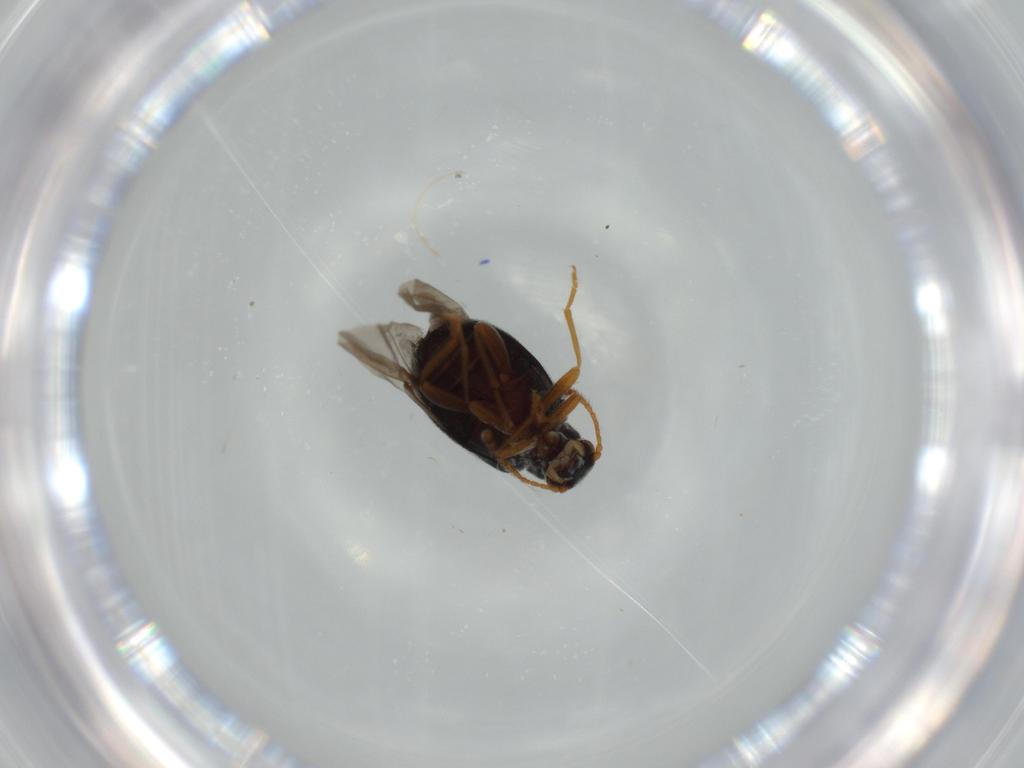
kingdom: Animalia
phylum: Arthropoda
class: Insecta
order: Coleoptera
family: Aderidae
